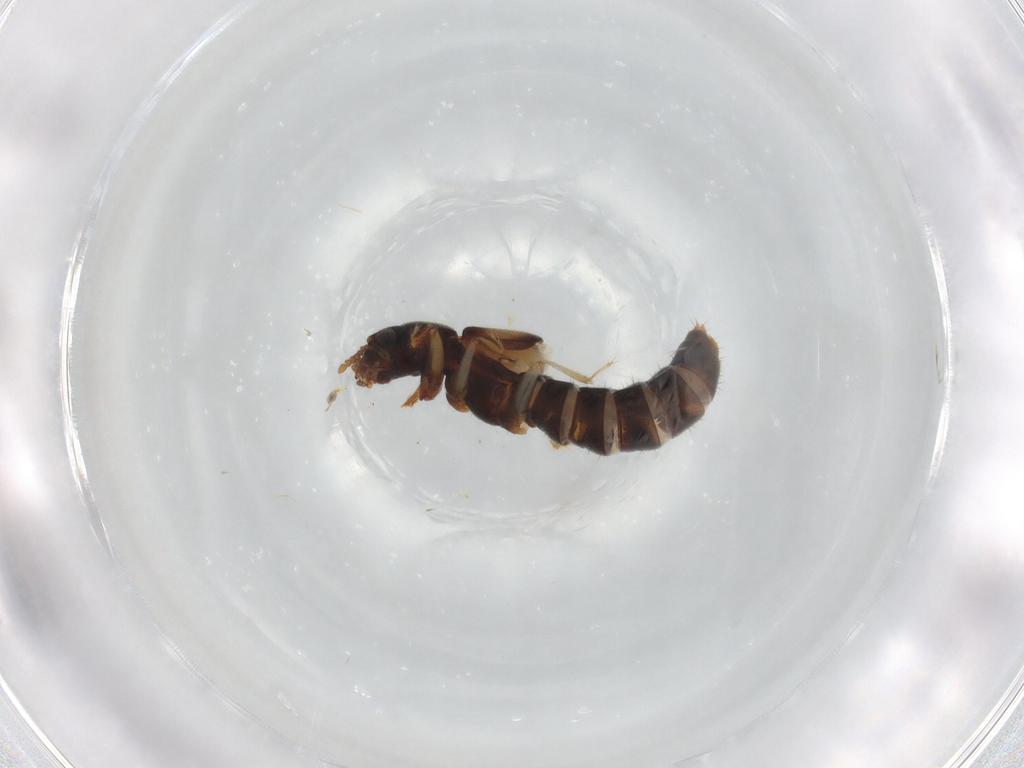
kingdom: Animalia
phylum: Arthropoda
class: Insecta
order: Coleoptera
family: Staphylinidae
